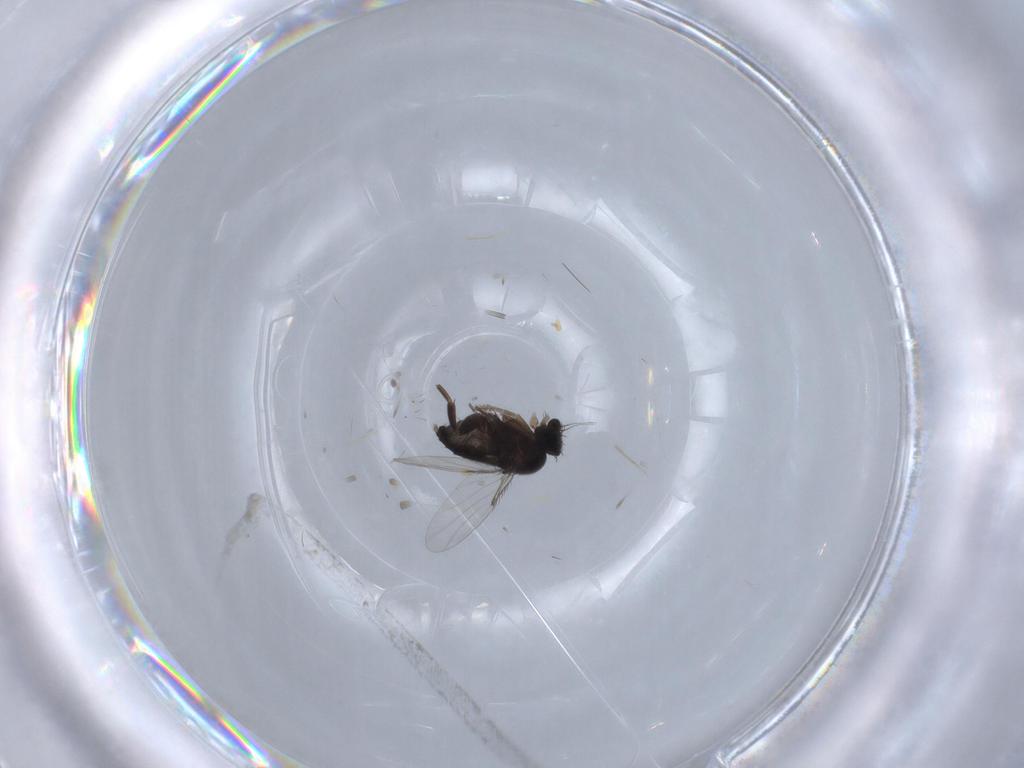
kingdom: Animalia
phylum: Arthropoda
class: Insecta
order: Diptera
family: Phoridae
